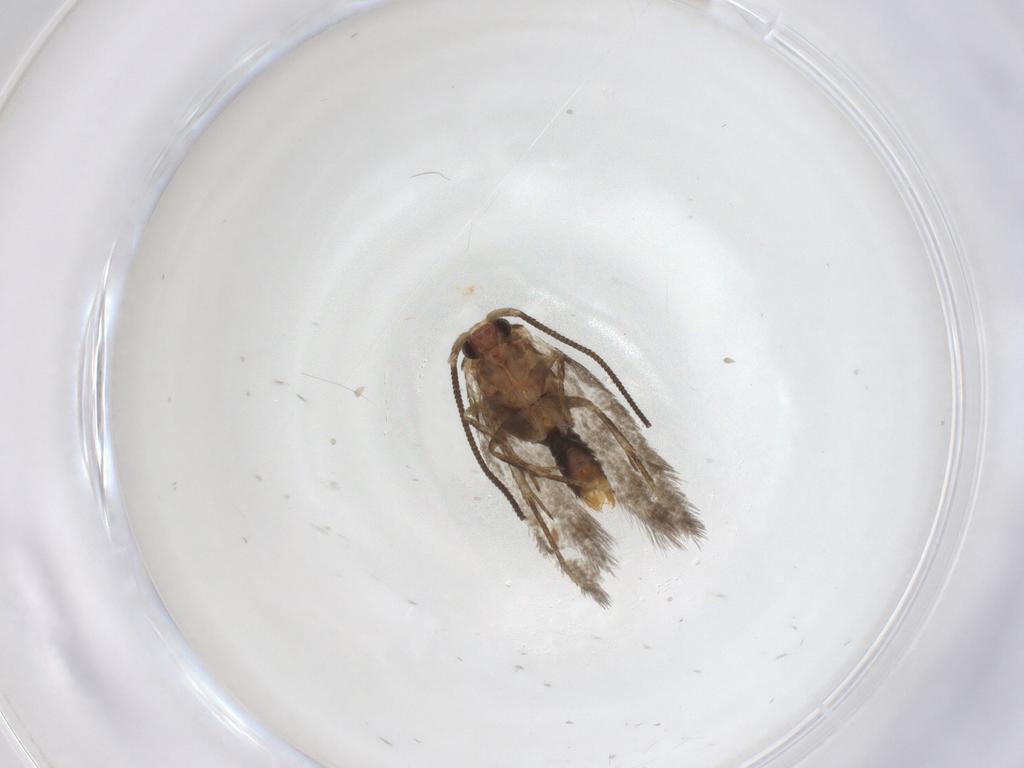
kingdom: Animalia
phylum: Arthropoda
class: Insecta
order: Lepidoptera
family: Nepticulidae
